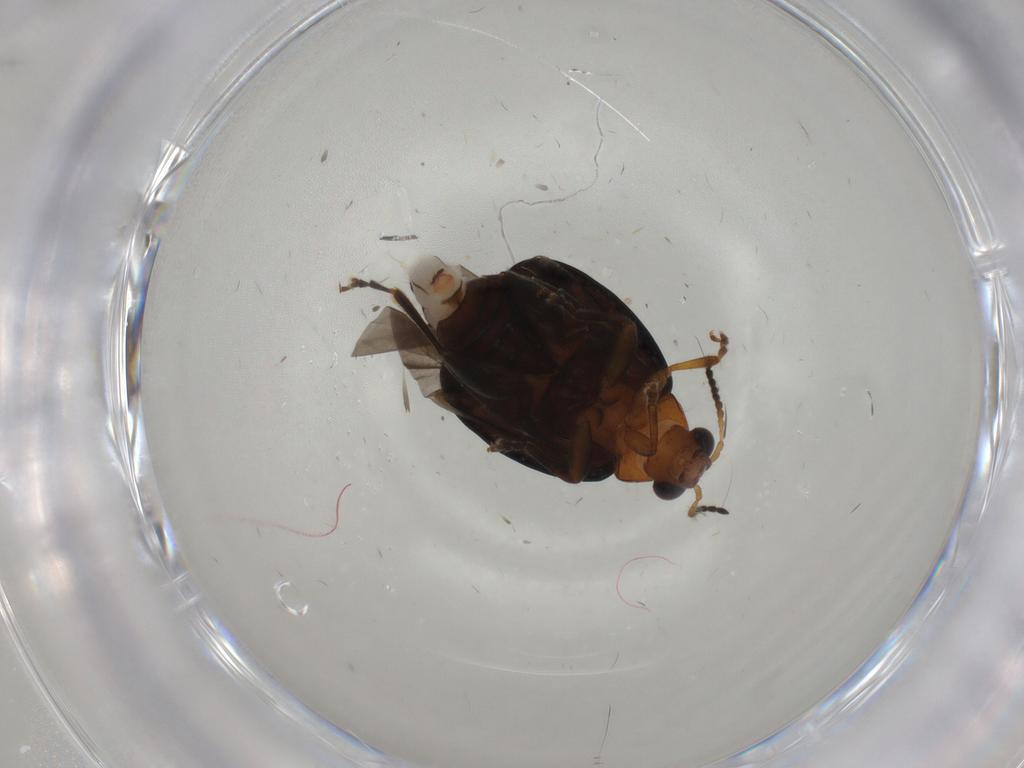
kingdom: Animalia
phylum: Arthropoda
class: Insecta
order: Coleoptera
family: Chrysomelidae
